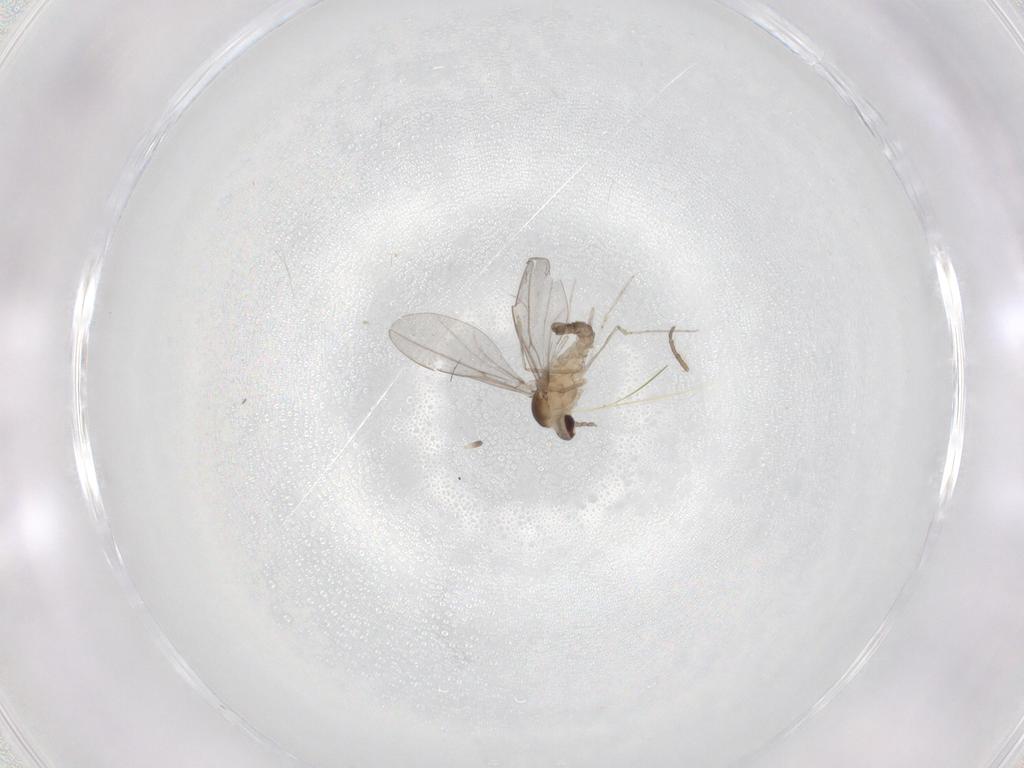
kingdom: Animalia
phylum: Arthropoda
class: Insecta
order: Diptera
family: Cecidomyiidae
